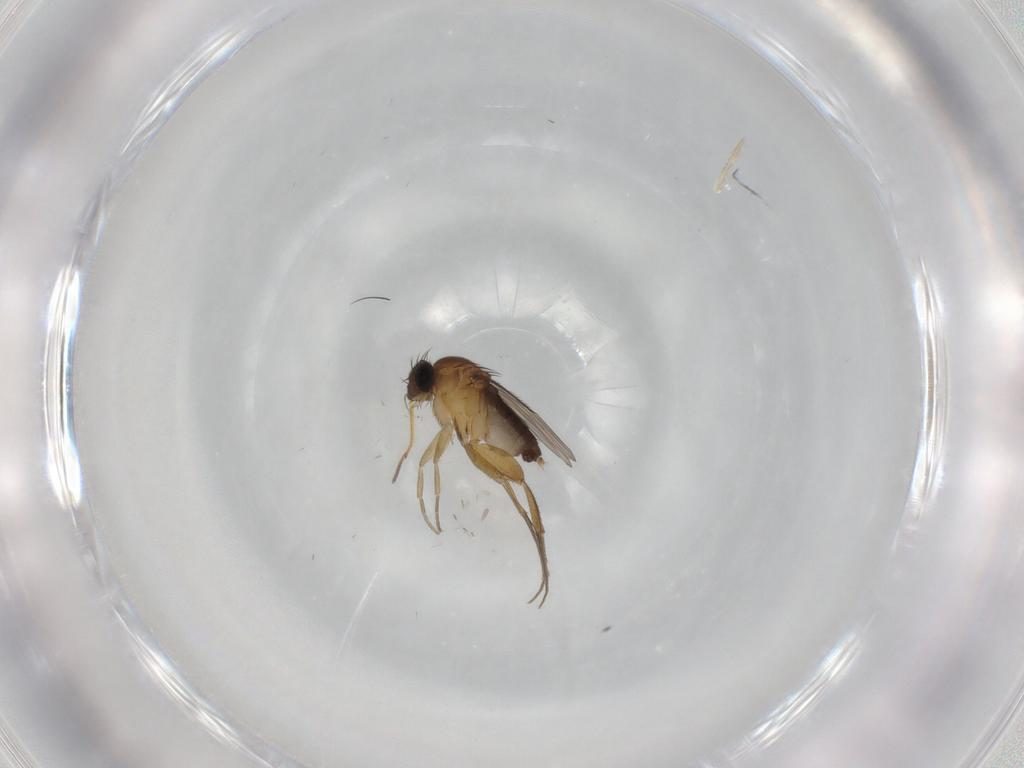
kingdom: Animalia
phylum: Arthropoda
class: Insecta
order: Diptera
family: Phoridae
